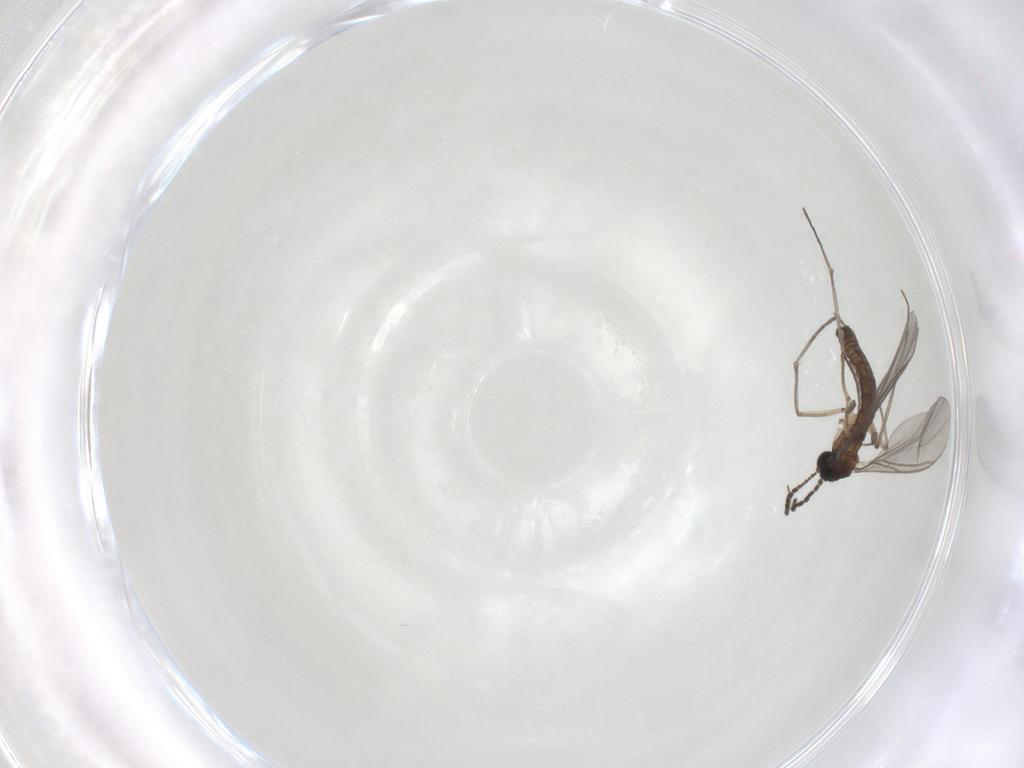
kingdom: Animalia
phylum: Arthropoda
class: Insecta
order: Diptera
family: Sciaridae
